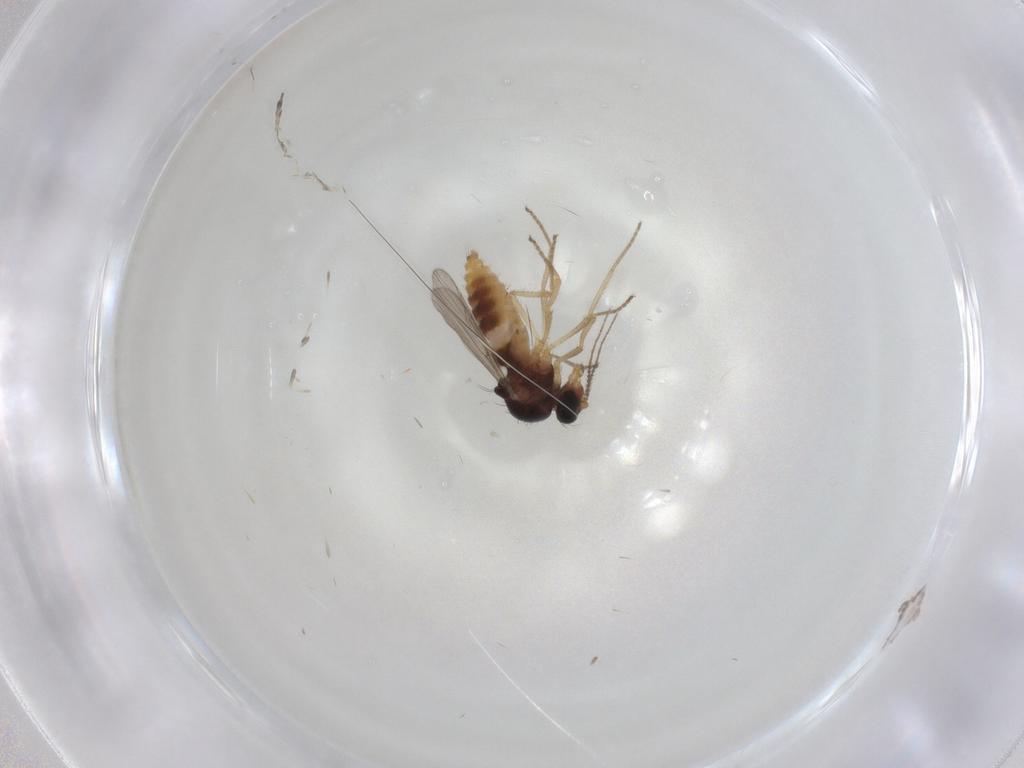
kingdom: Animalia
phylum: Arthropoda
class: Insecta
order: Diptera
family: Ceratopogonidae
